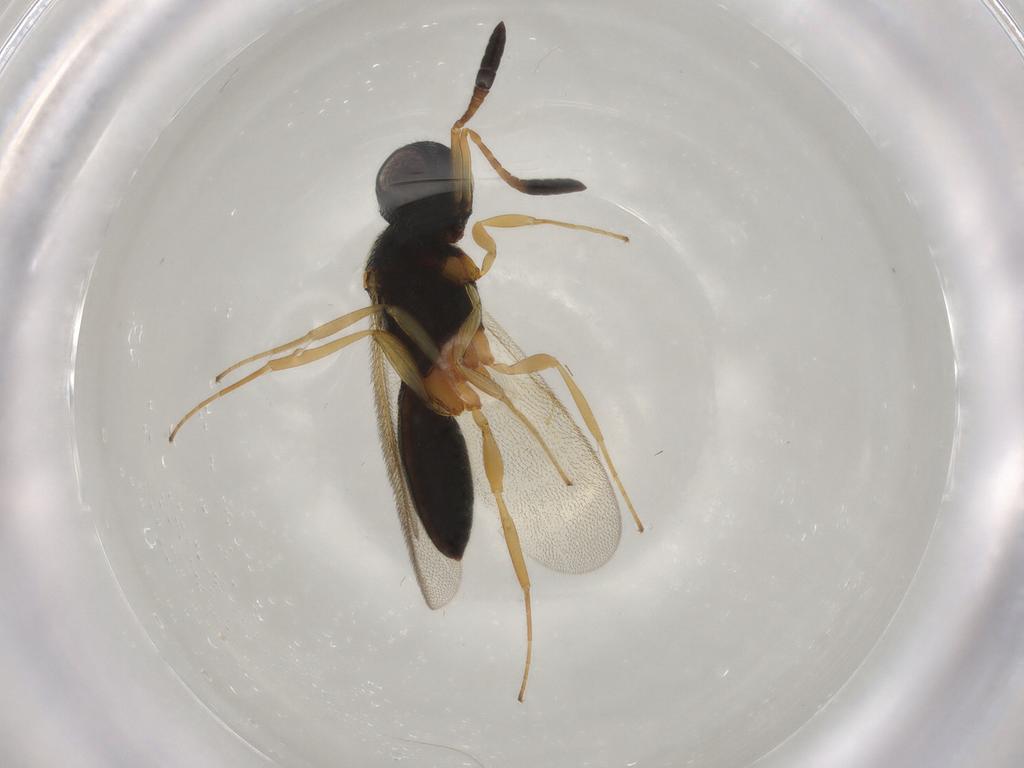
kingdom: Animalia
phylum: Arthropoda
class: Insecta
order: Hymenoptera
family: Scelionidae
